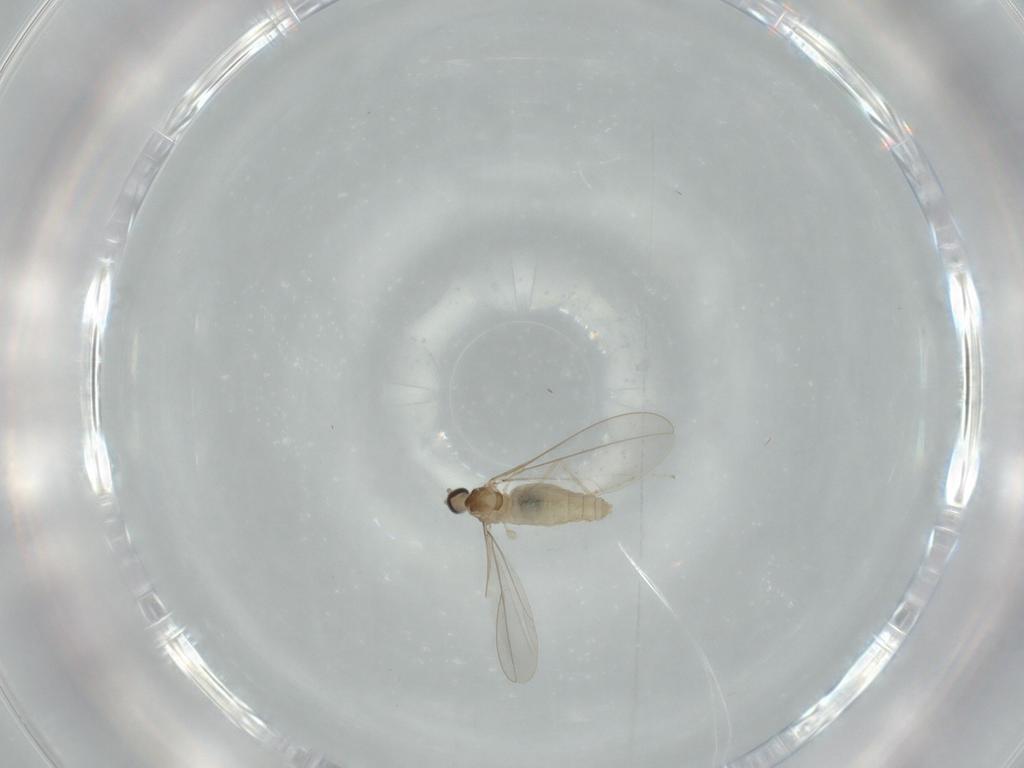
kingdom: Animalia
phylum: Arthropoda
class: Insecta
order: Diptera
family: Cecidomyiidae
